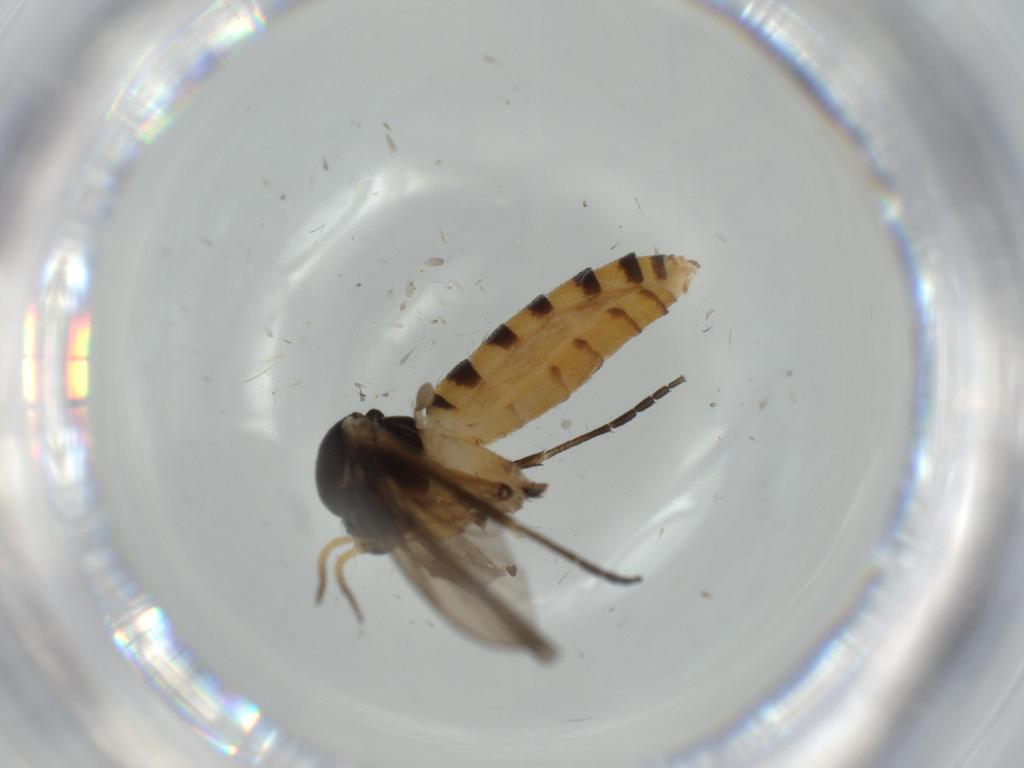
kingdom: Animalia
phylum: Arthropoda
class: Insecta
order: Diptera
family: Mycetophilidae
